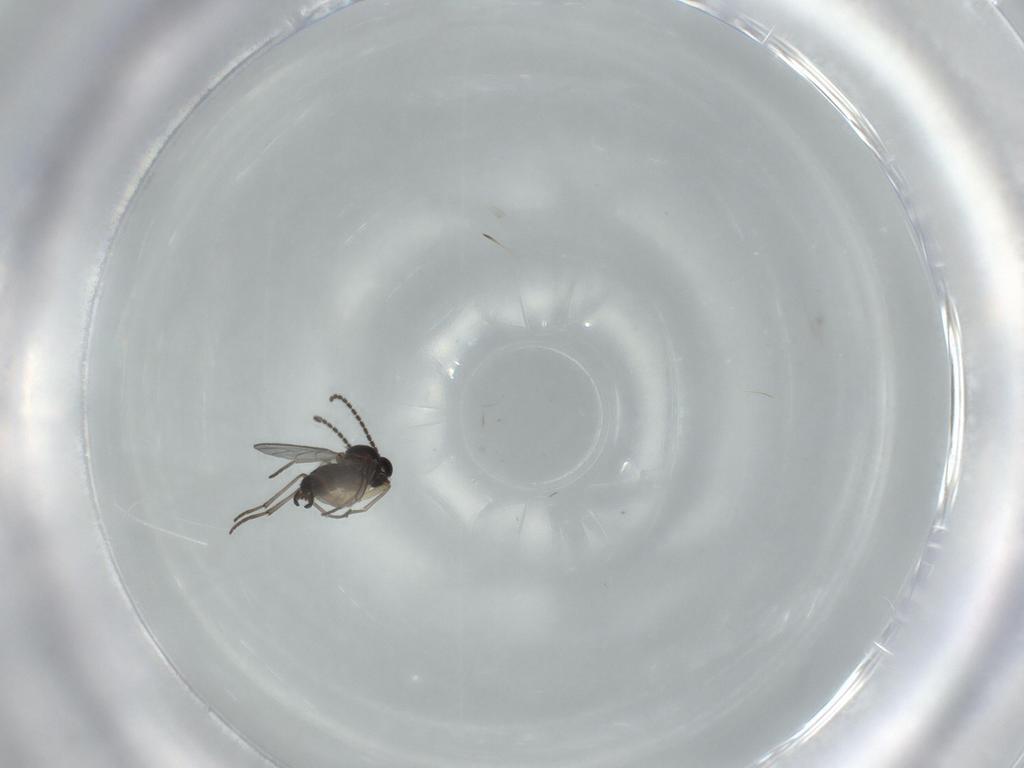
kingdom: Animalia
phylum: Arthropoda
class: Insecta
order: Diptera
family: Sciaridae
